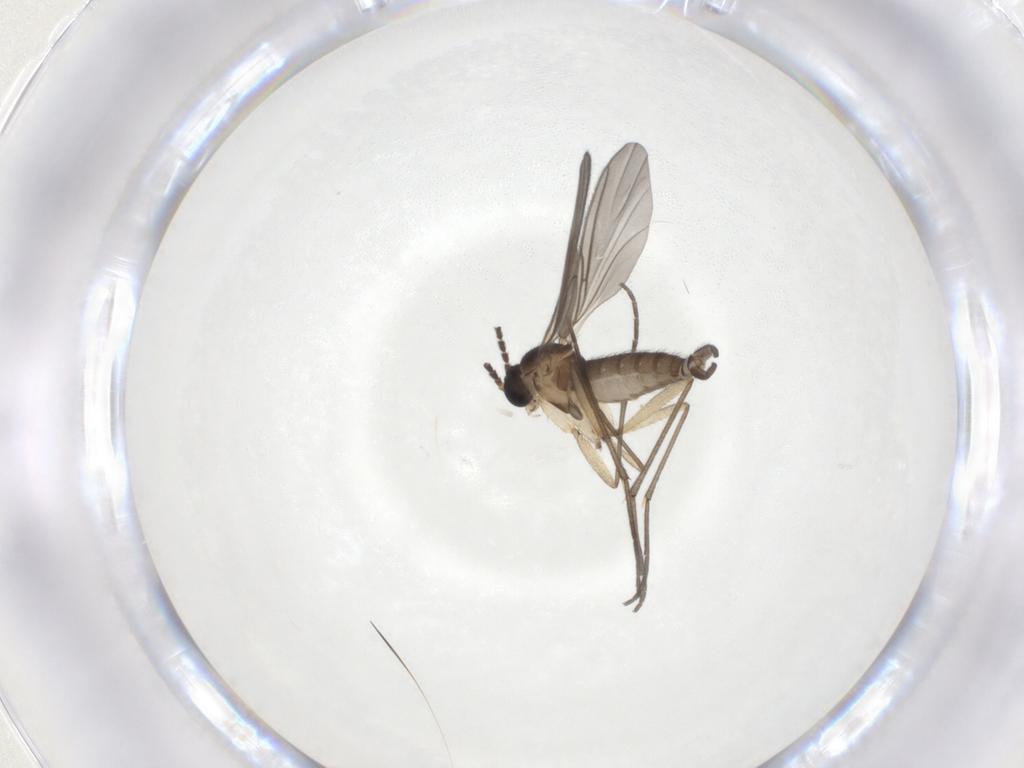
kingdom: Animalia
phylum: Arthropoda
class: Insecta
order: Diptera
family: Sciaridae
